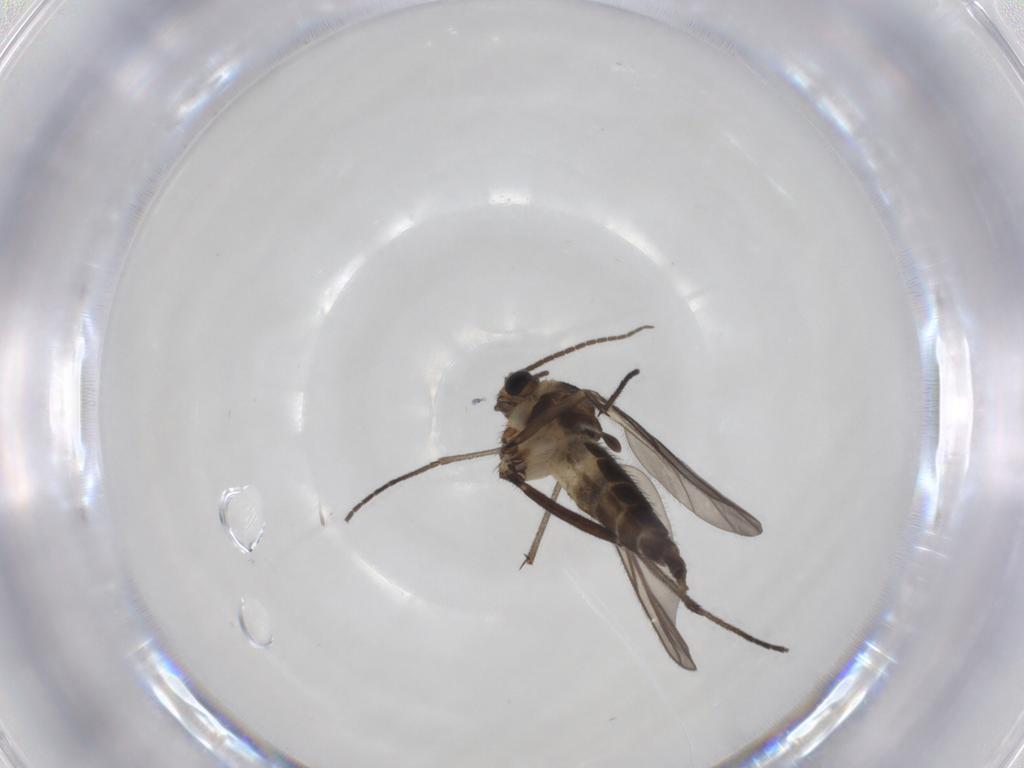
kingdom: Animalia
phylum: Arthropoda
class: Insecta
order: Diptera
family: Sciaridae
